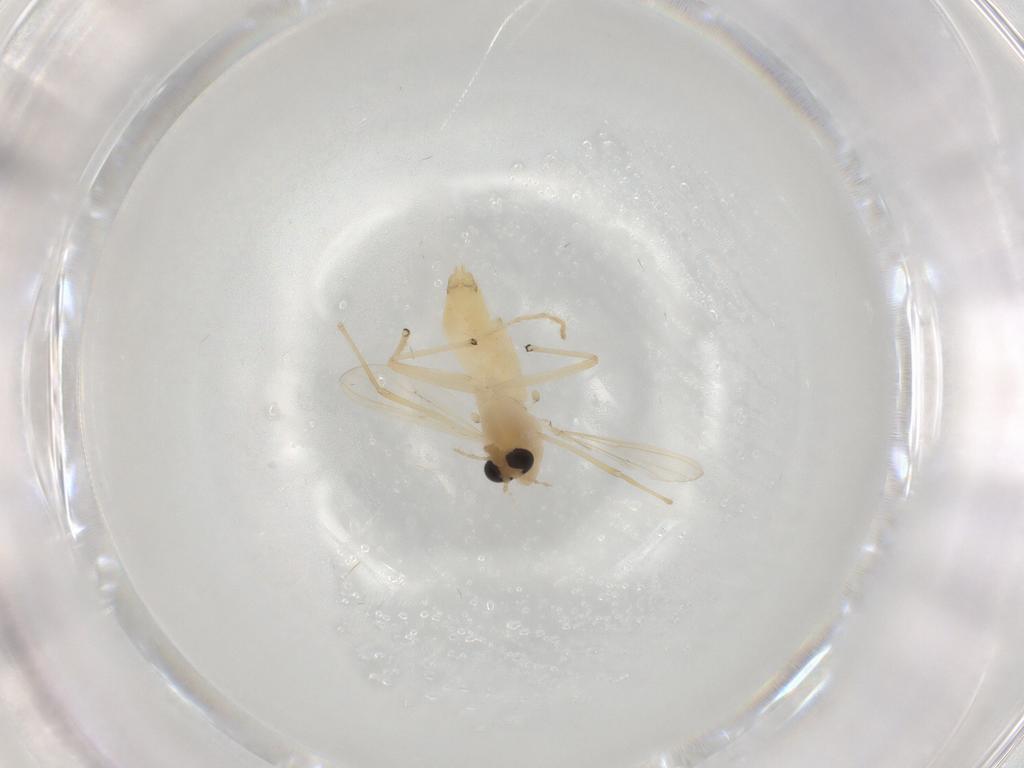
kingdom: Animalia
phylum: Arthropoda
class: Insecta
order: Diptera
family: Chironomidae
